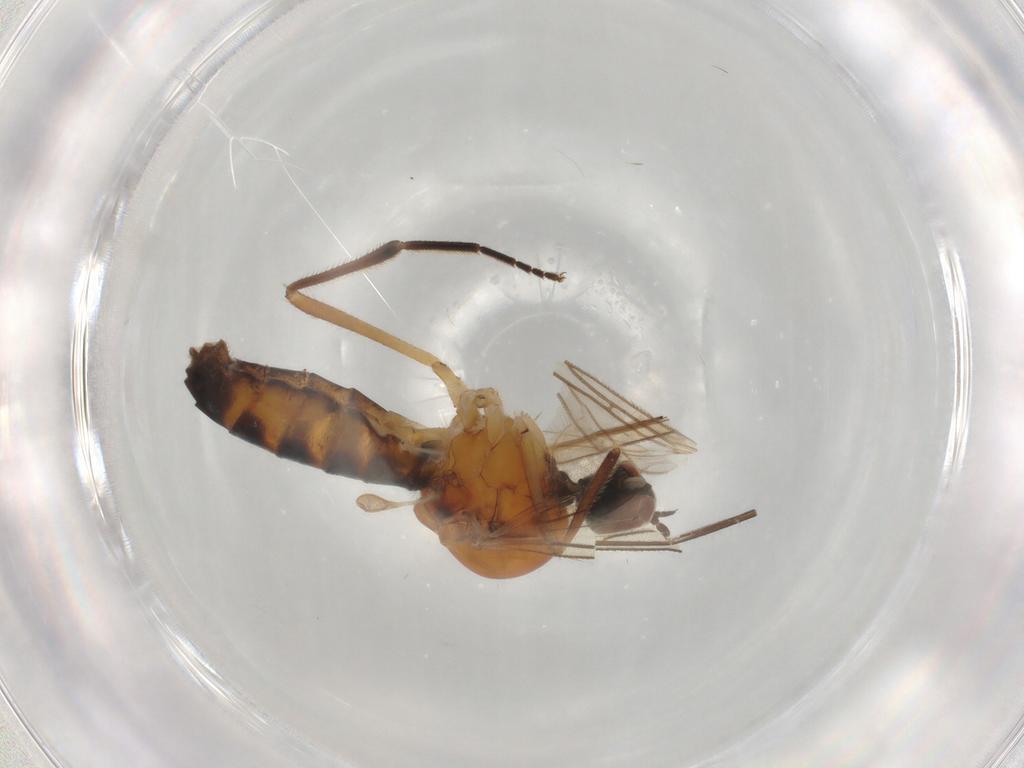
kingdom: Animalia
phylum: Arthropoda
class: Insecta
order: Diptera
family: Hybotidae
